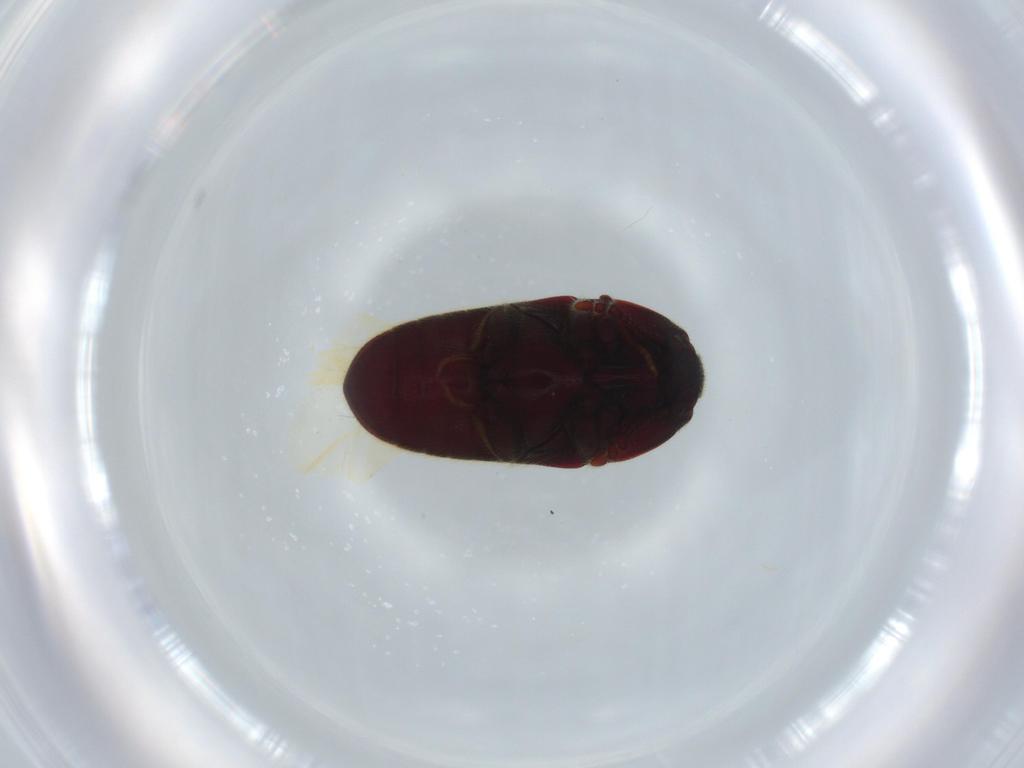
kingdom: Animalia
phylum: Arthropoda
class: Insecta
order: Coleoptera
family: Throscidae
